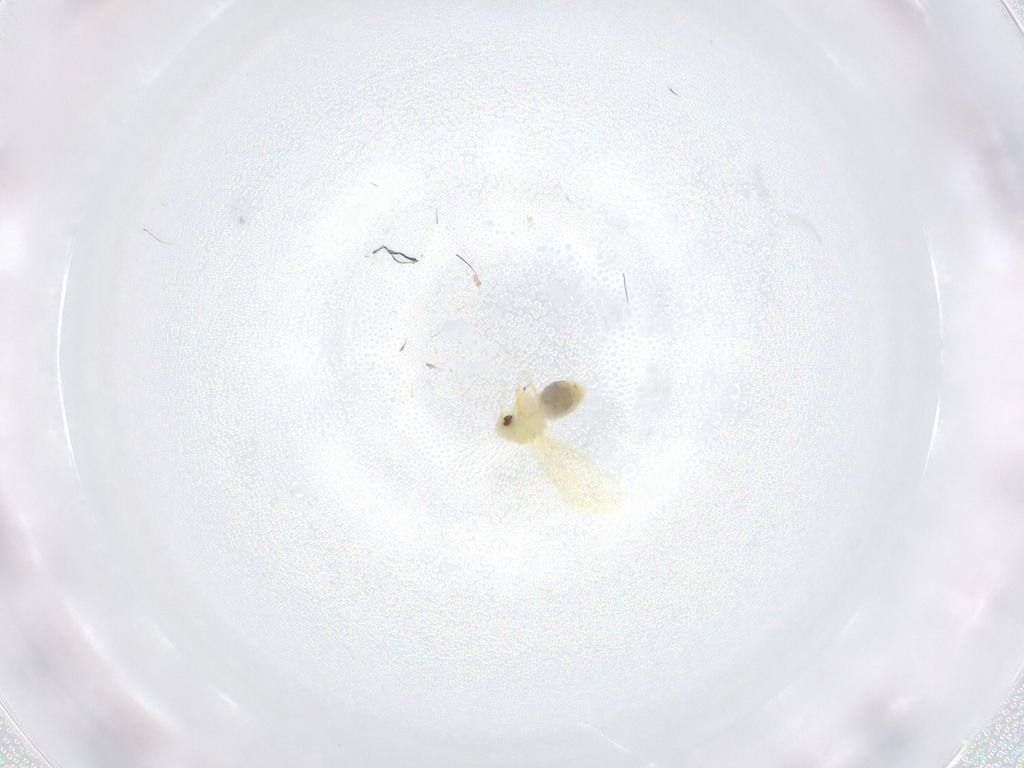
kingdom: Animalia
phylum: Arthropoda
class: Insecta
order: Hemiptera
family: Aleyrodidae
